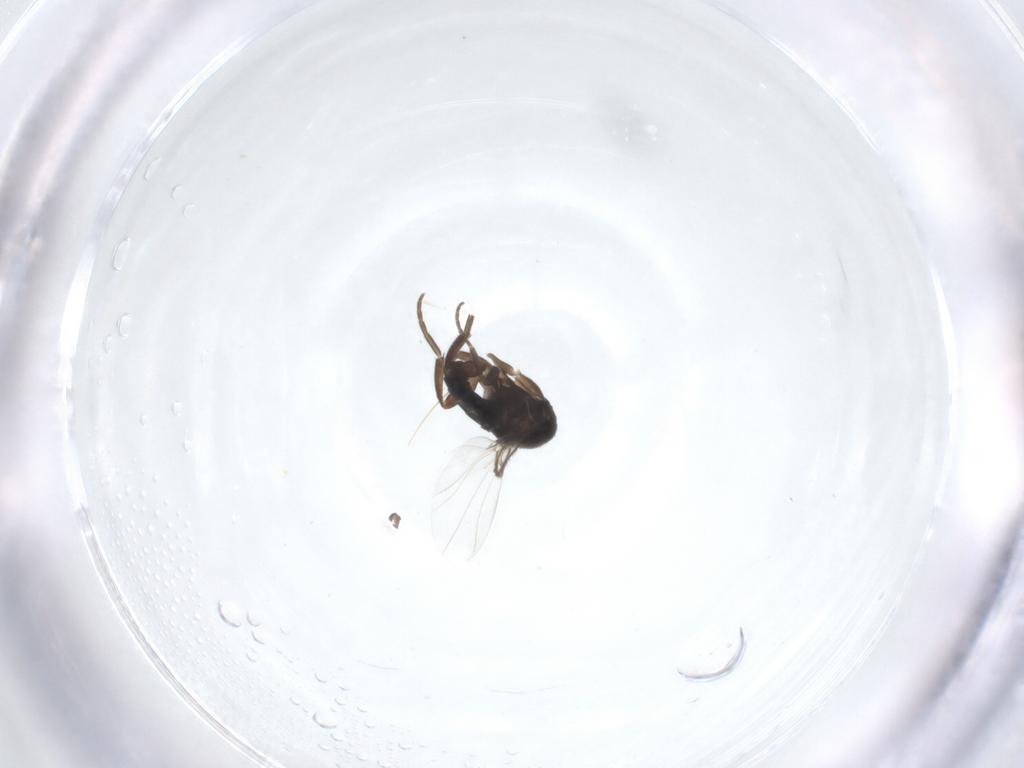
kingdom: Animalia
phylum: Arthropoda
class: Insecta
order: Diptera
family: Phoridae
